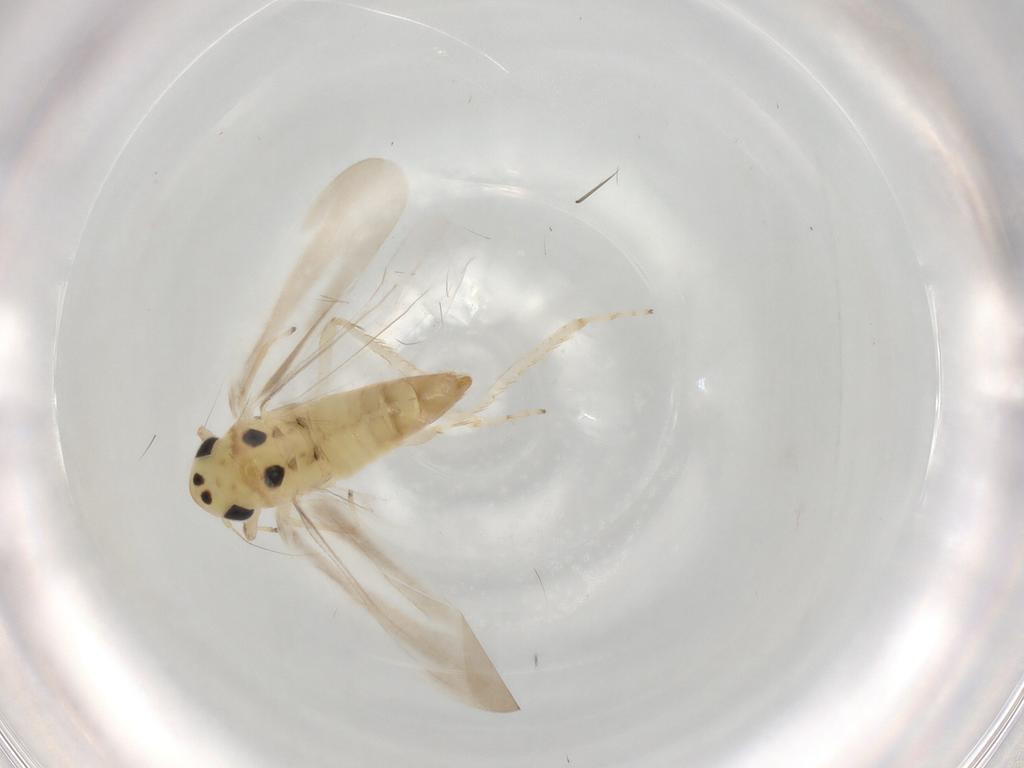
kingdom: Animalia
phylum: Arthropoda
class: Insecta
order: Hemiptera
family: Cicadellidae
